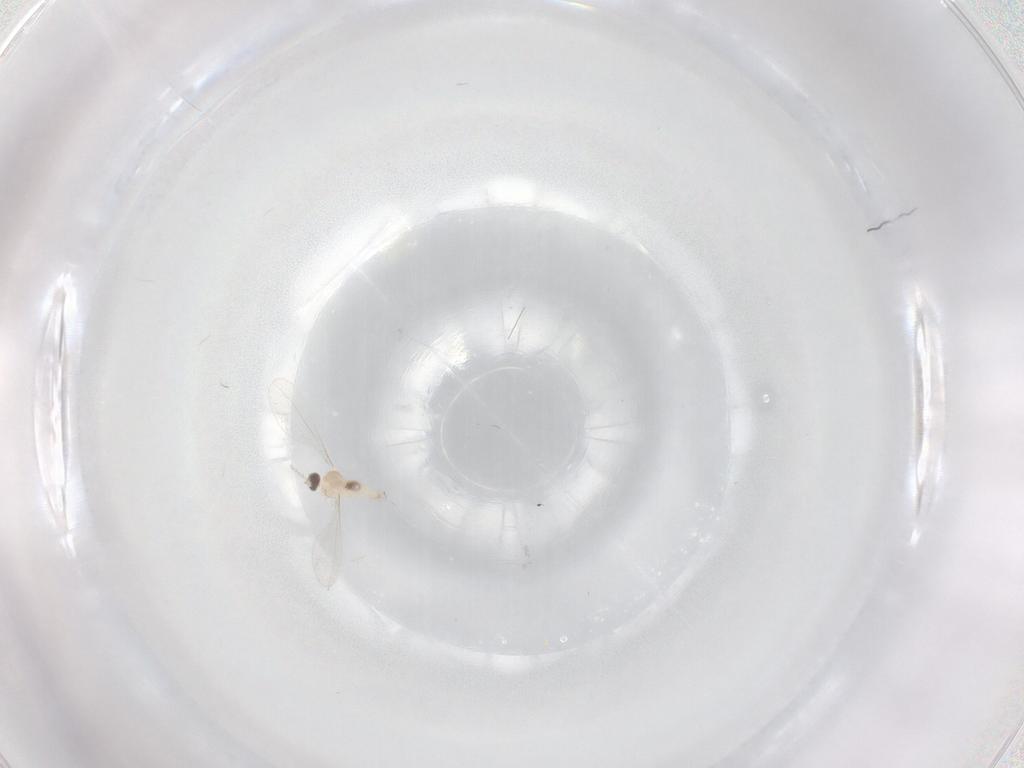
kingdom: Animalia
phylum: Arthropoda
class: Insecta
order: Diptera
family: Cecidomyiidae
